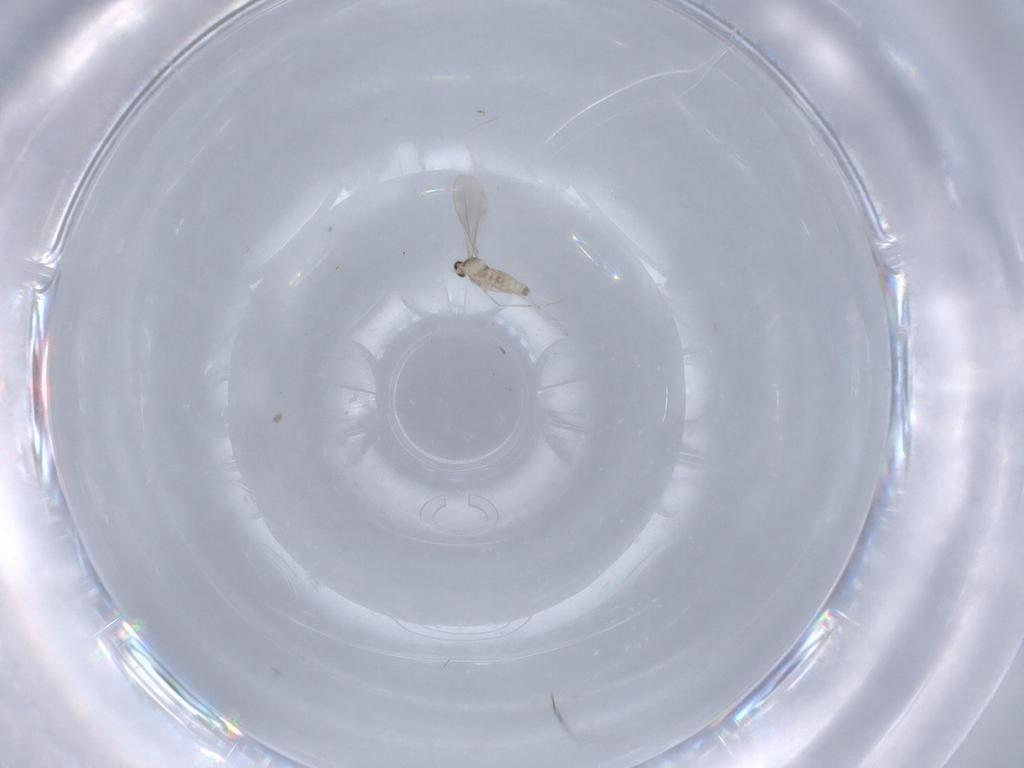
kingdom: Animalia
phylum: Arthropoda
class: Insecta
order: Diptera
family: Cecidomyiidae
